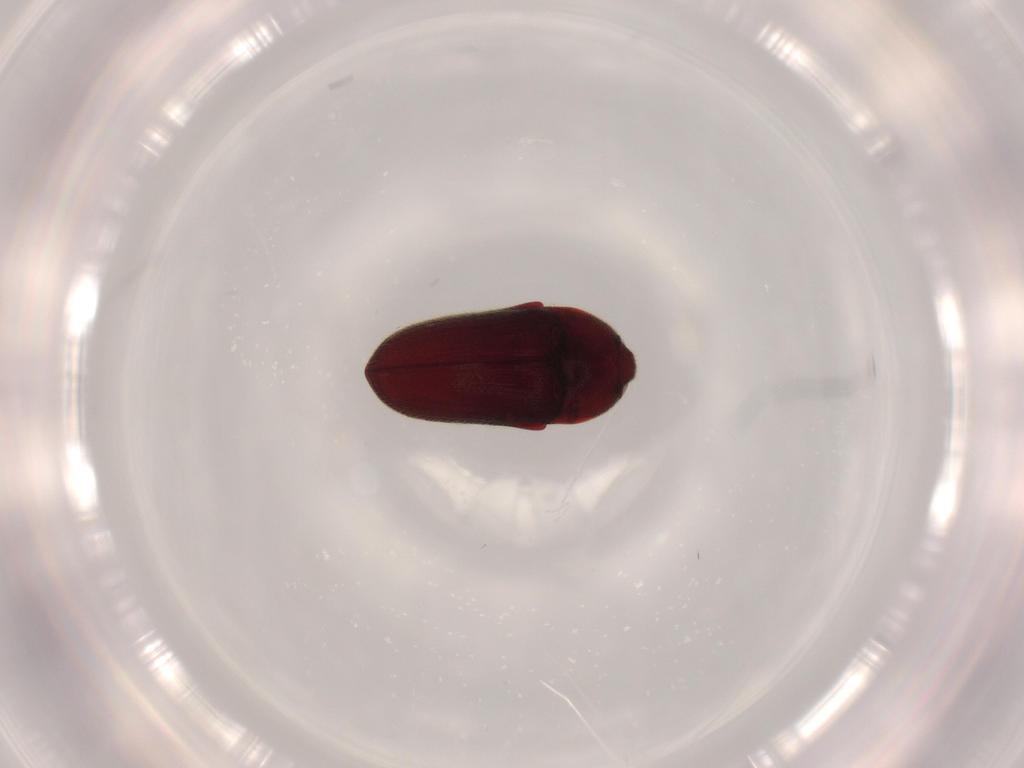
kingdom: Animalia
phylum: Arthropoda
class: Insecta
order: Coleoptera
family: Throscidae
